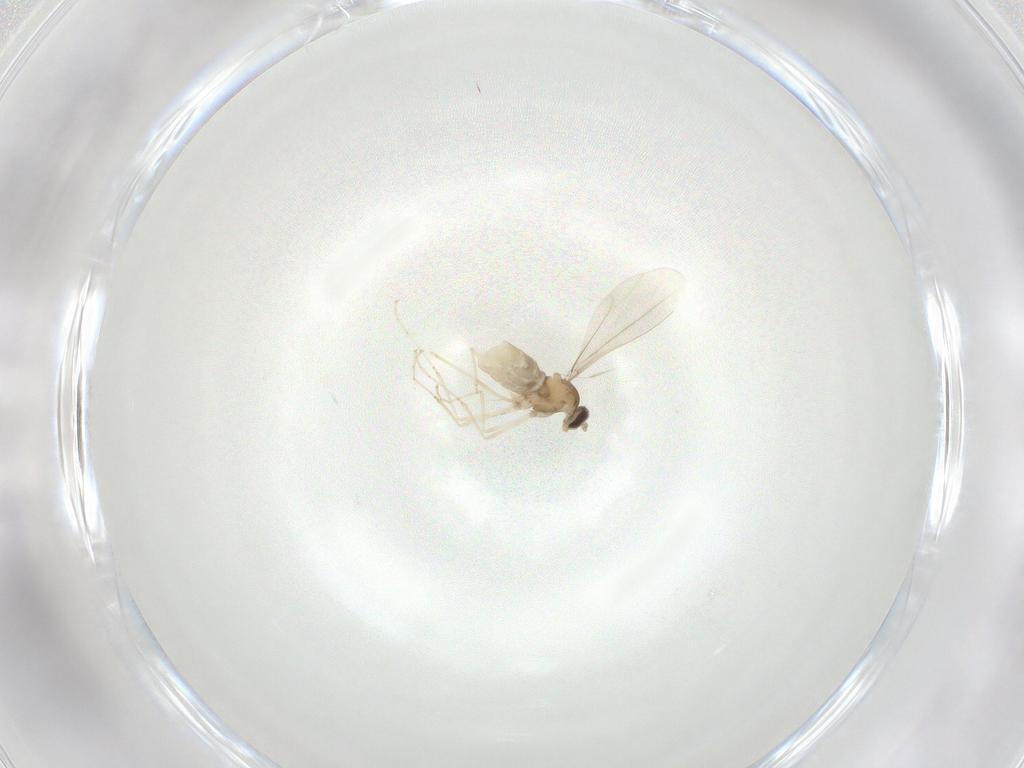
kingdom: Animalia
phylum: Arthropoda
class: Insecta
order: Diptera
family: Cecidomyiidae
